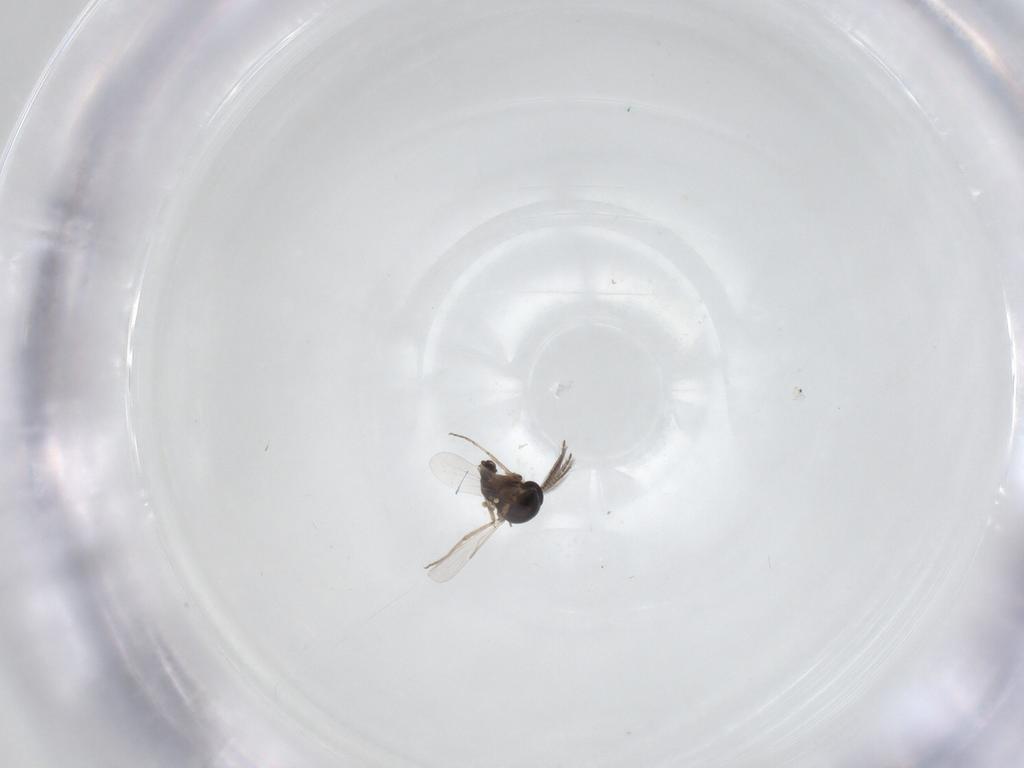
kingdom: Animalia
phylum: Arthropoda
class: Insecta
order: Diptera
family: Ceratopogonidae
